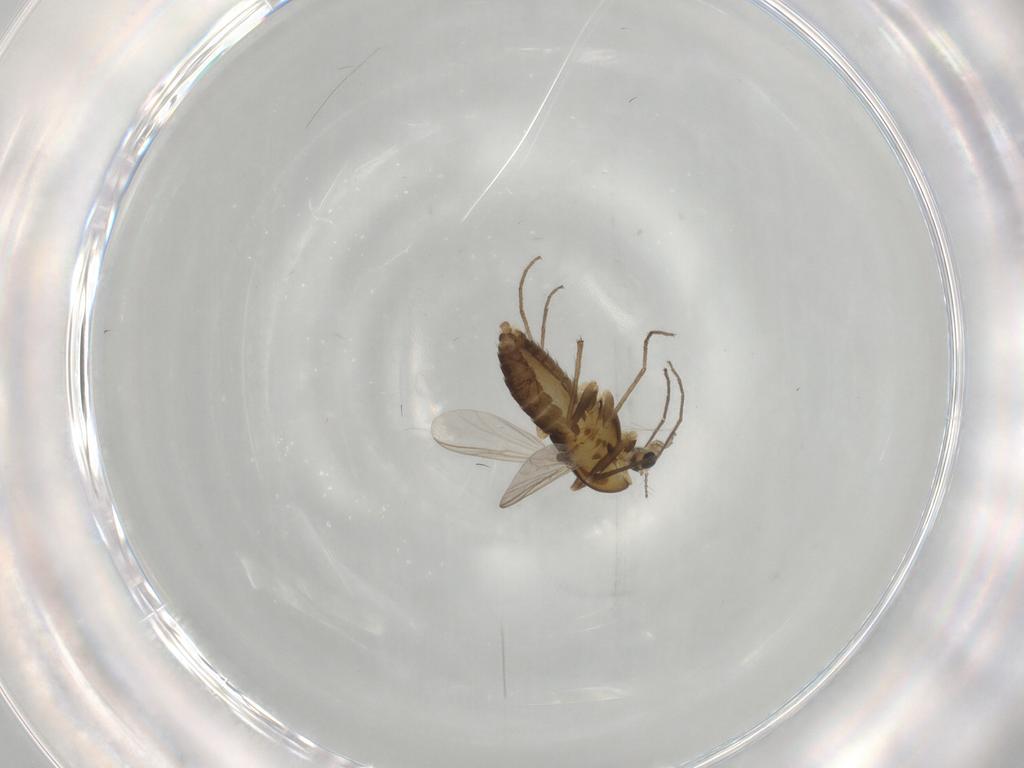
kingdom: Animalia
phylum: Arthropoda
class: Insecta
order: Diptera
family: Chironomidae
